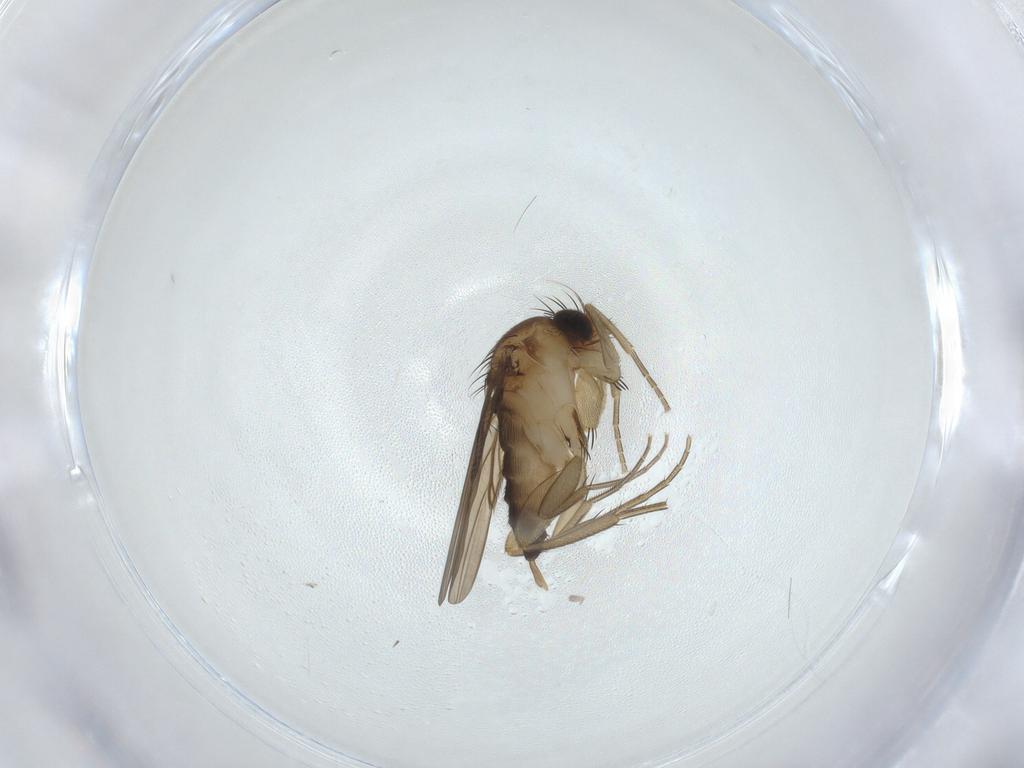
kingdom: Animalia
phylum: Arthropoda
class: Insecta
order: Diptera
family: Phoridae
